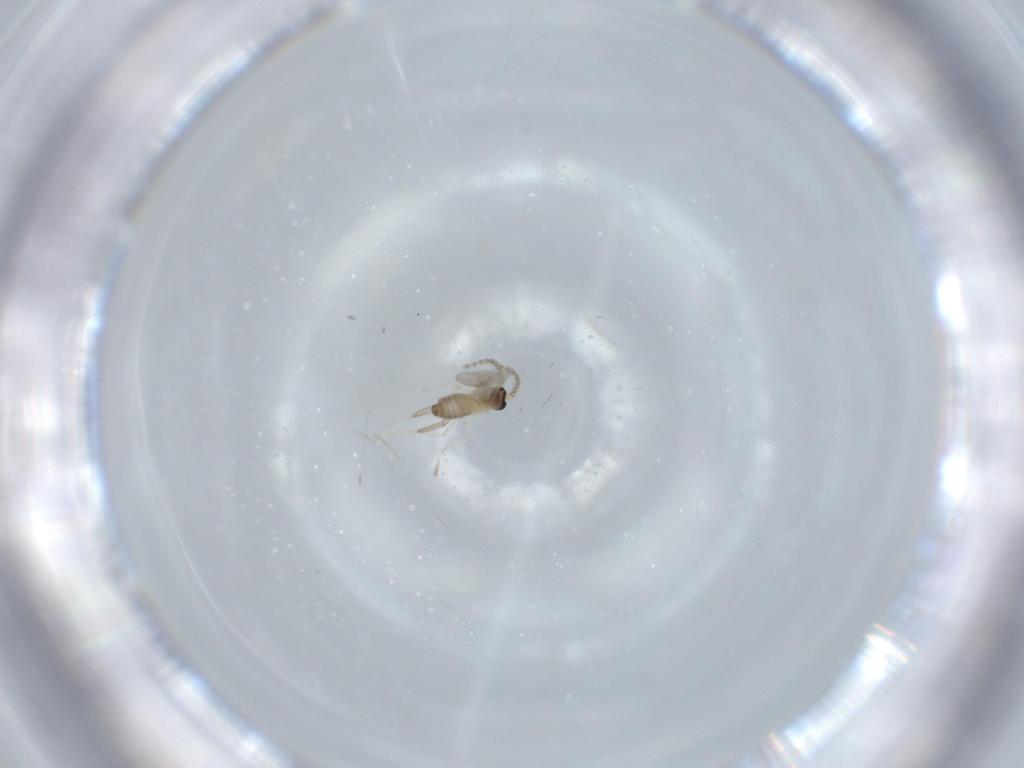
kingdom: Animalia
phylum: Arthropoda
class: Insecta
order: Diptera
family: Cecidomyiidae
